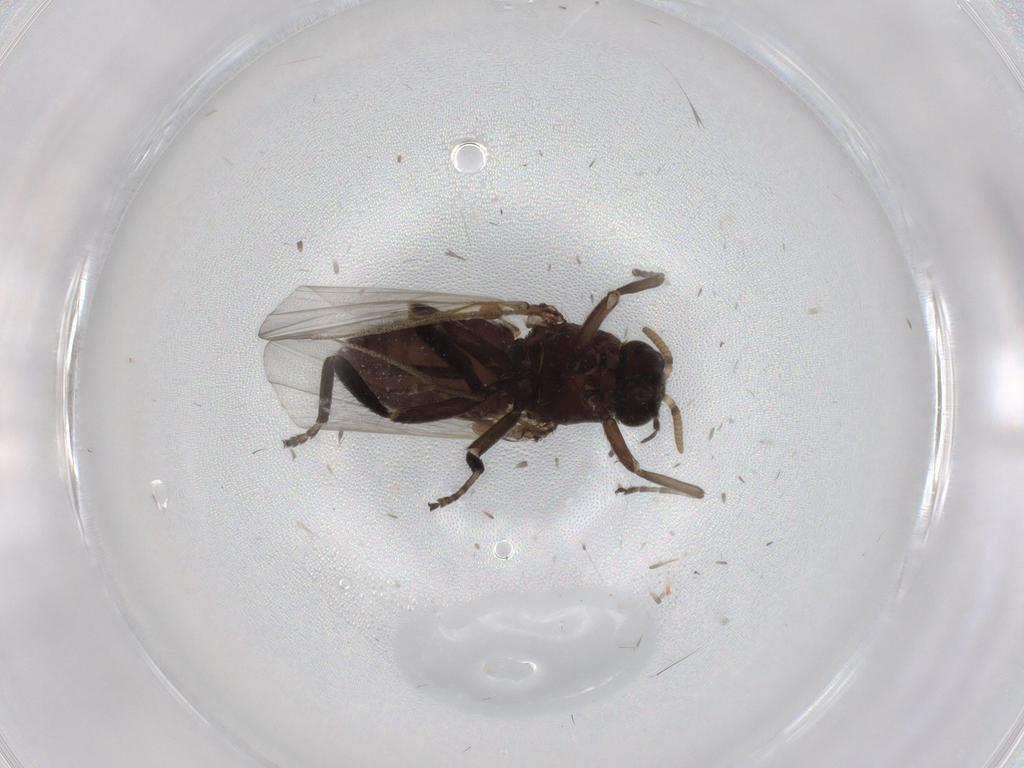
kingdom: Animalia
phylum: Arthropoda
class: Insecta
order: Diptera
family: Psychodidae
